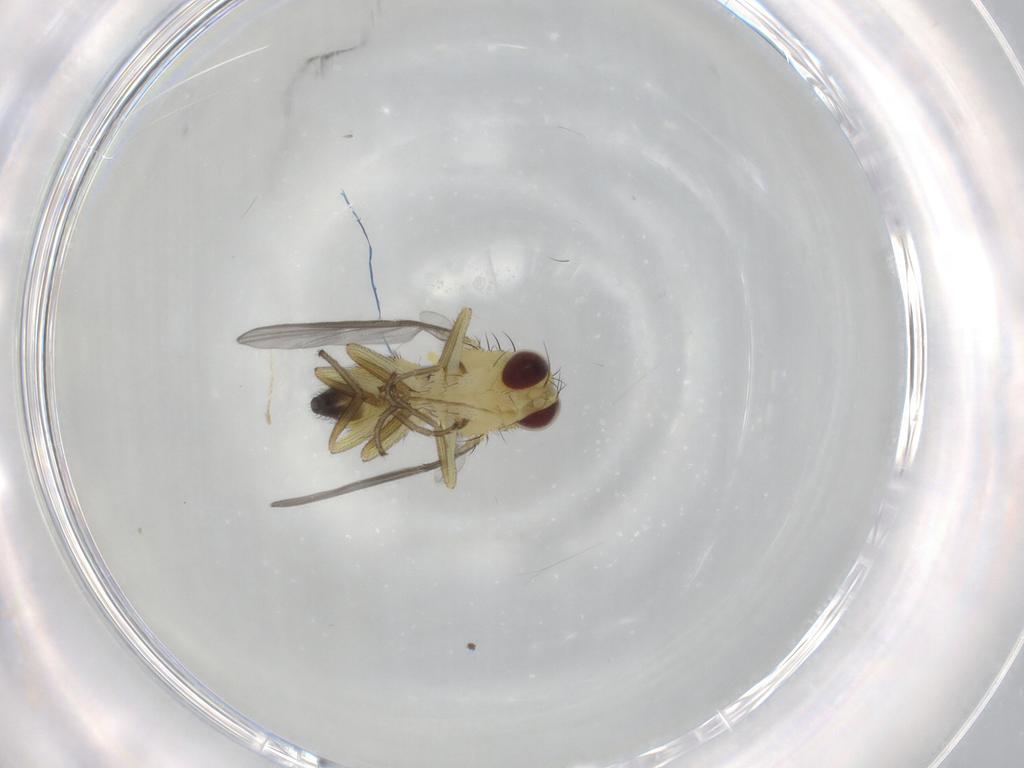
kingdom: Animalia
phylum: Arthropoda
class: Insecta
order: Diptera
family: Agromyzidae
